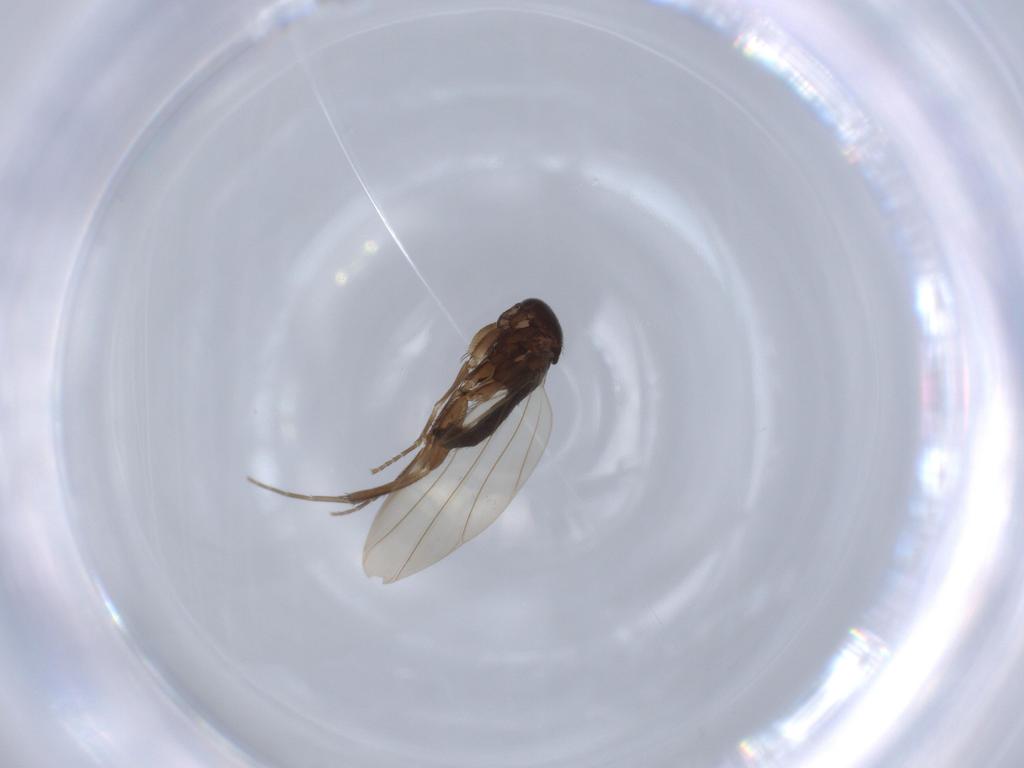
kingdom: Animalia
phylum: Arthropoda
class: Insecta
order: Diptera
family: Phoridae
